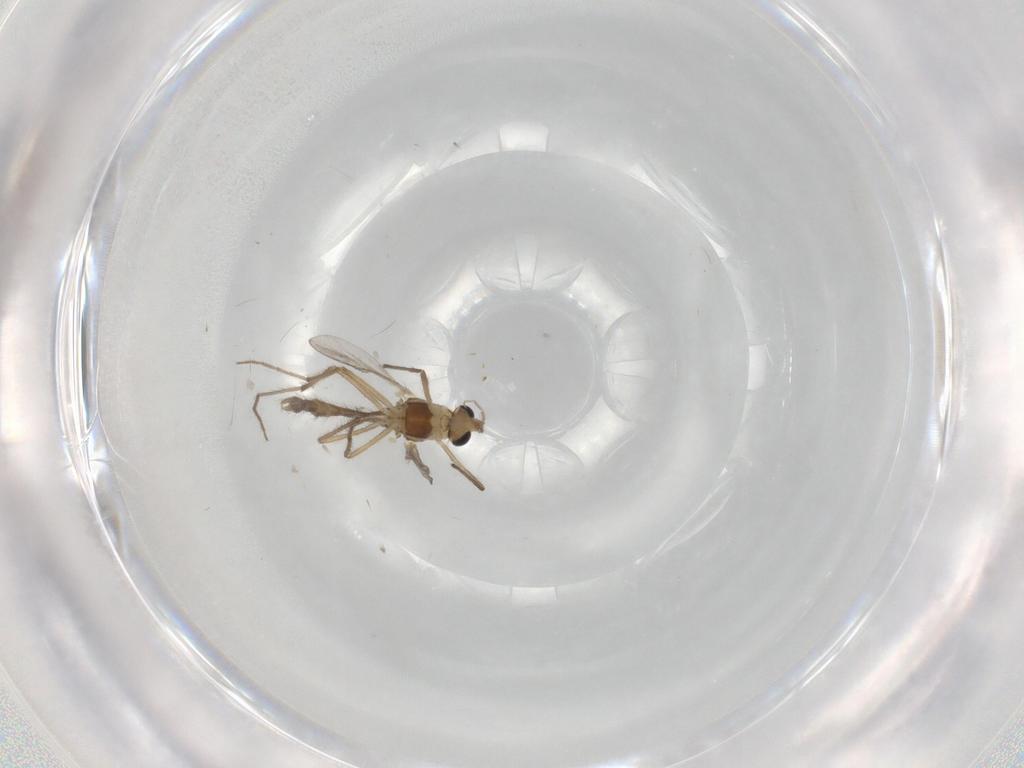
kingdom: Animalia
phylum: Arthropoda
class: Insecta
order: Diptera
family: Chironomidae
